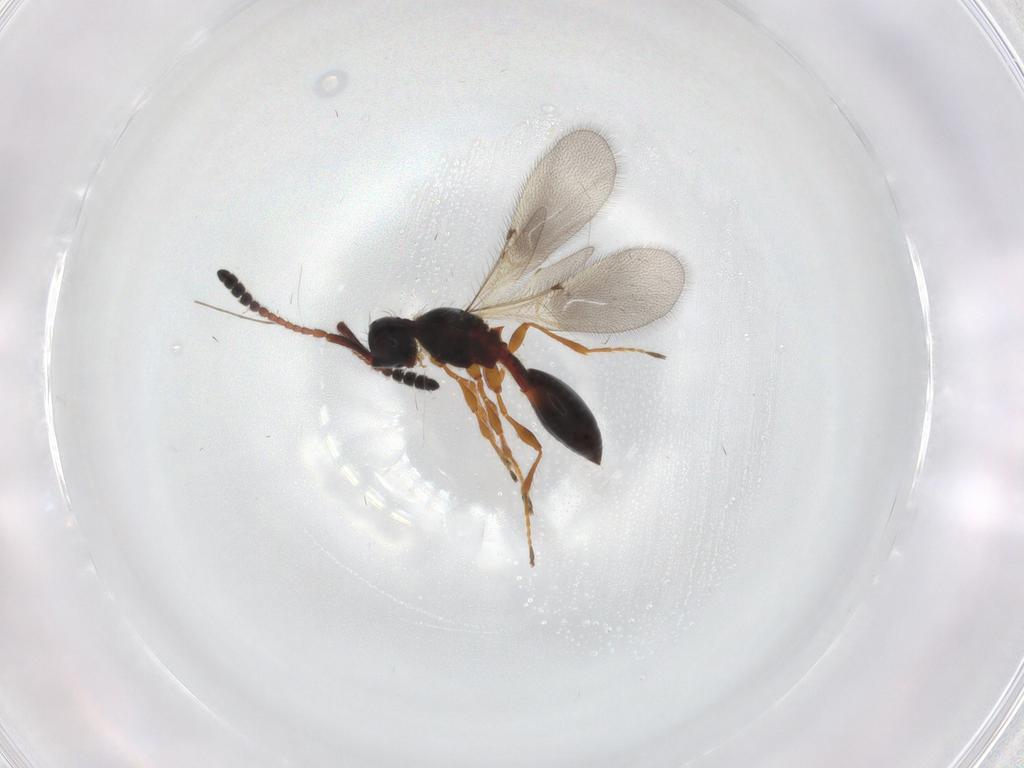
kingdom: Animalia
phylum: Arthropoda
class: Insecta
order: Hymenoptera
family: Diapriidae
